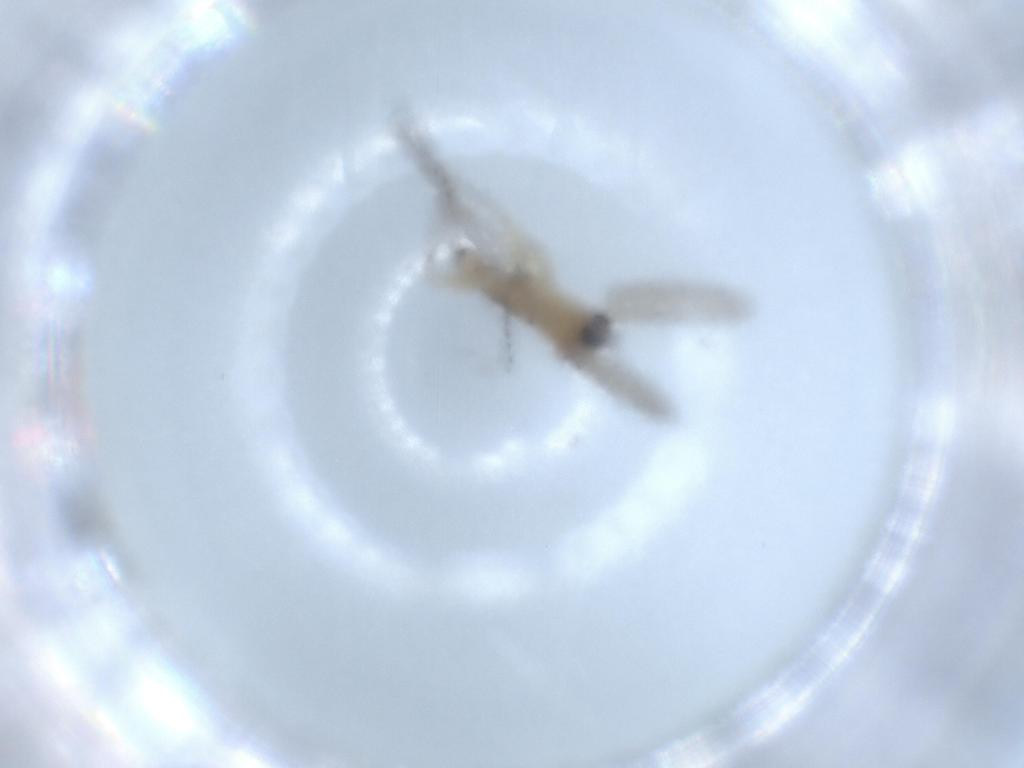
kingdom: Animalia
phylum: Arthropoda
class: Insecta
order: Diptera
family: Sciaridae
